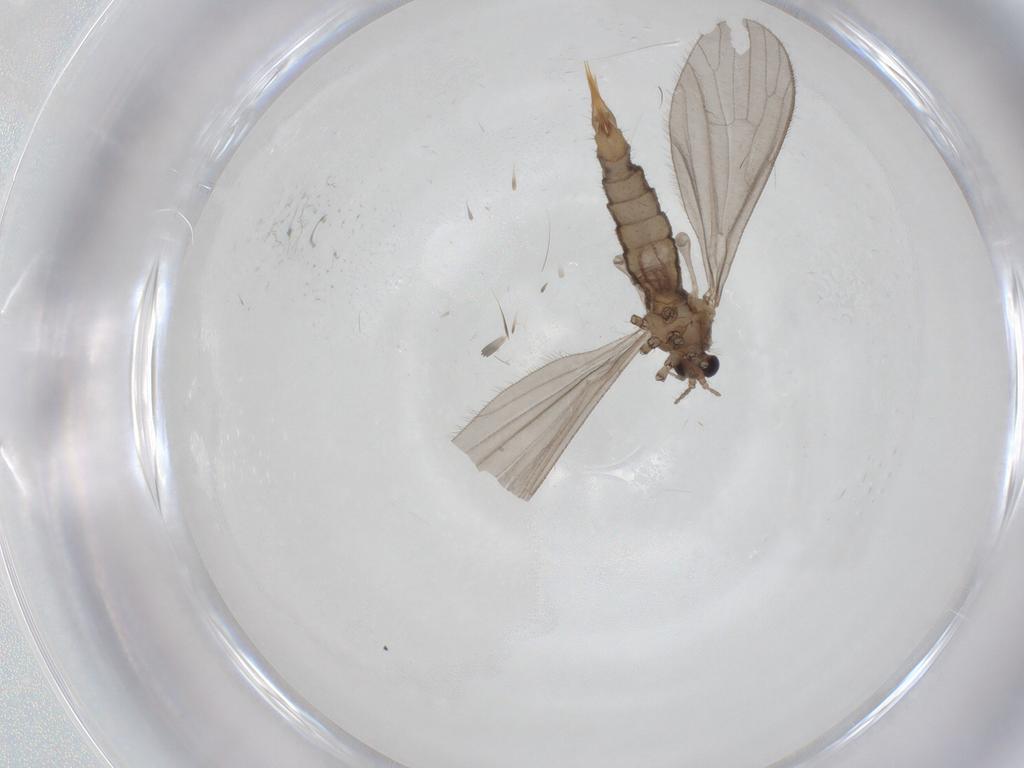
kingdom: Animalia
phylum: Arthropoda
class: Insecta
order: Diptera
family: Limoniidae
